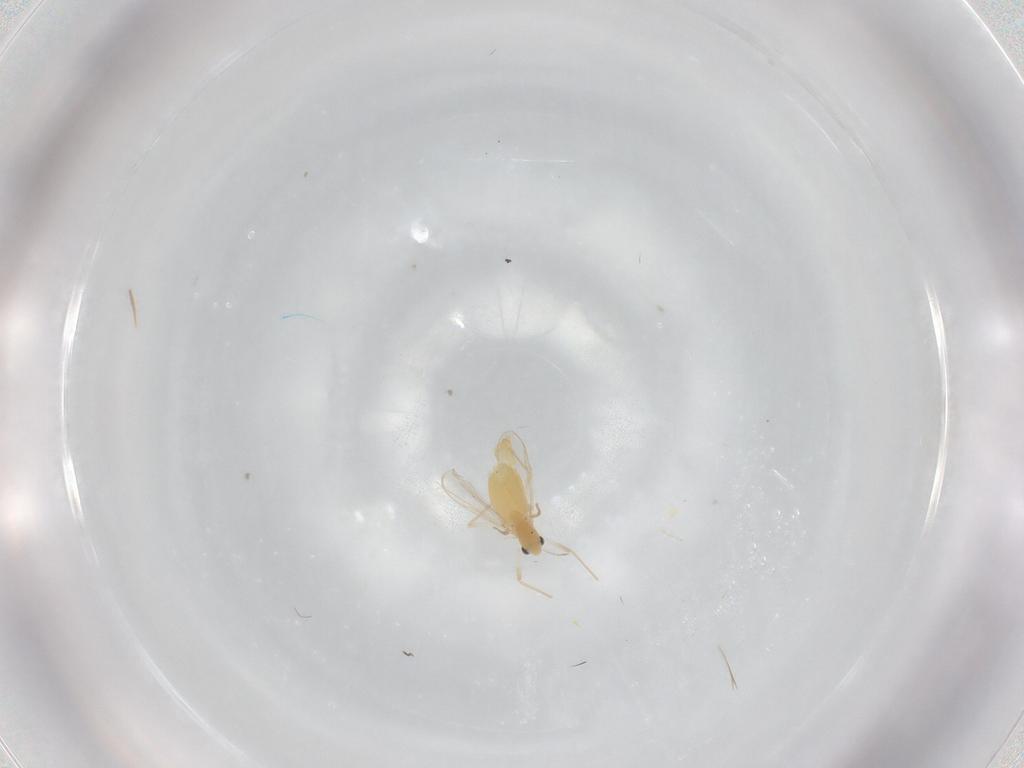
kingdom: Animalia
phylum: Arthropoda
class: Insecta
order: Diptera
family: Chironomidae
